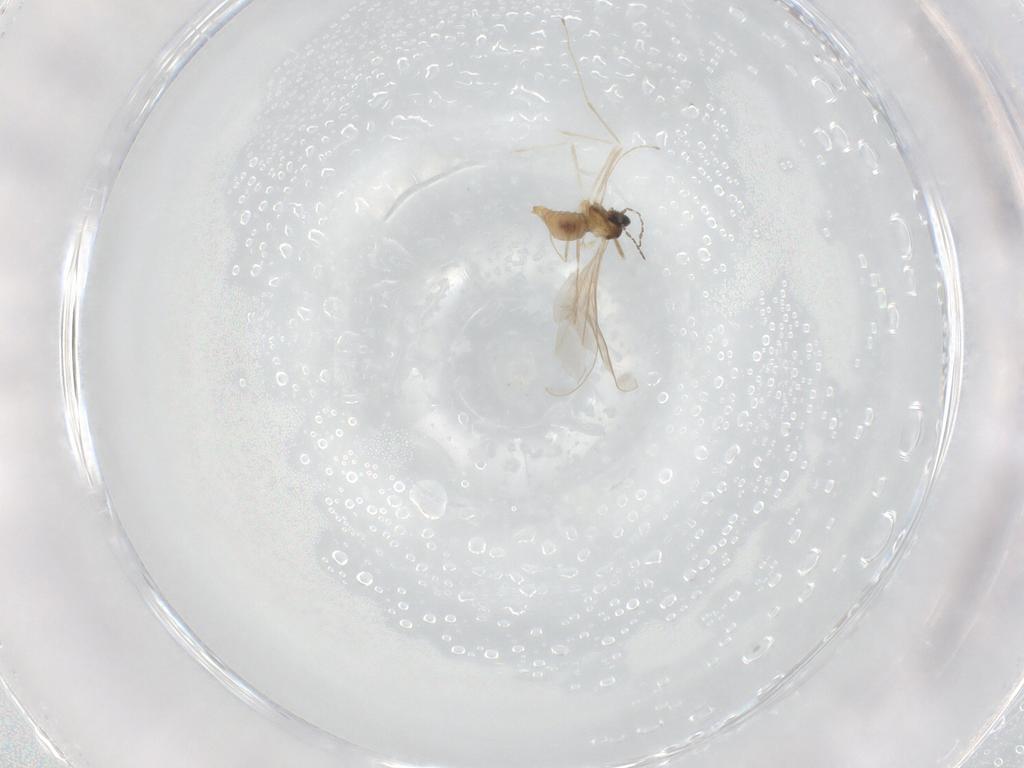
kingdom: Animalia
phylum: Arthropoda
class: Insecta
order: Diptera
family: Cecidomyiidae
